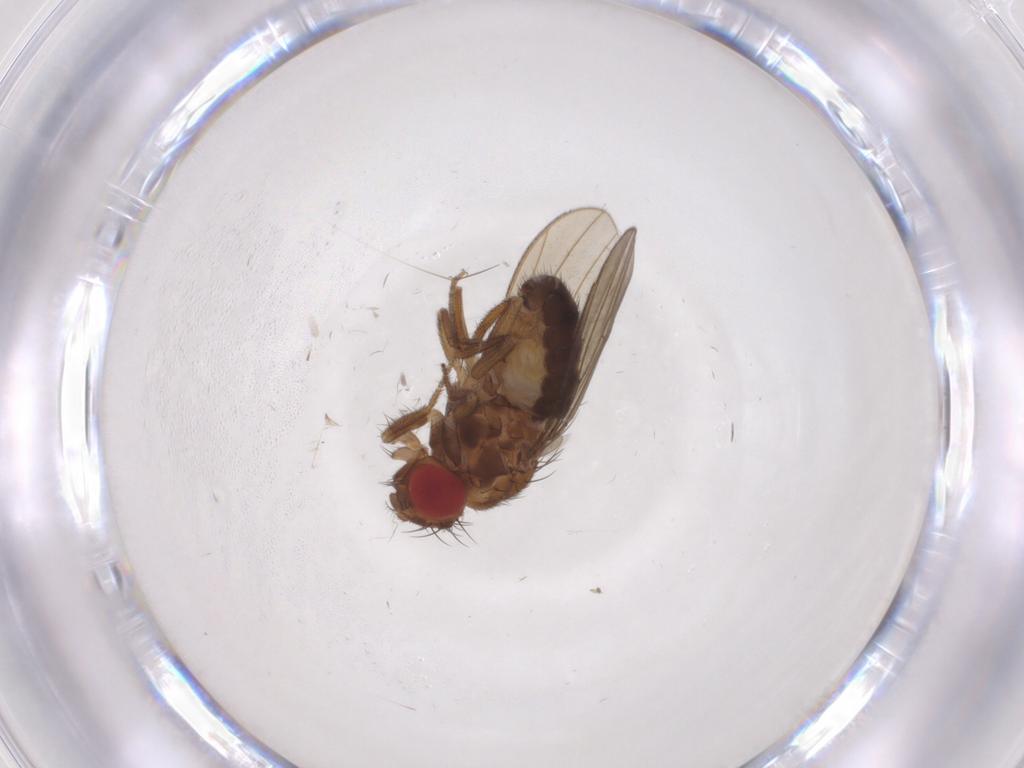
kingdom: Animalia
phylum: Arthropoda
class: Insecta
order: Diptera
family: Drosophilidae
